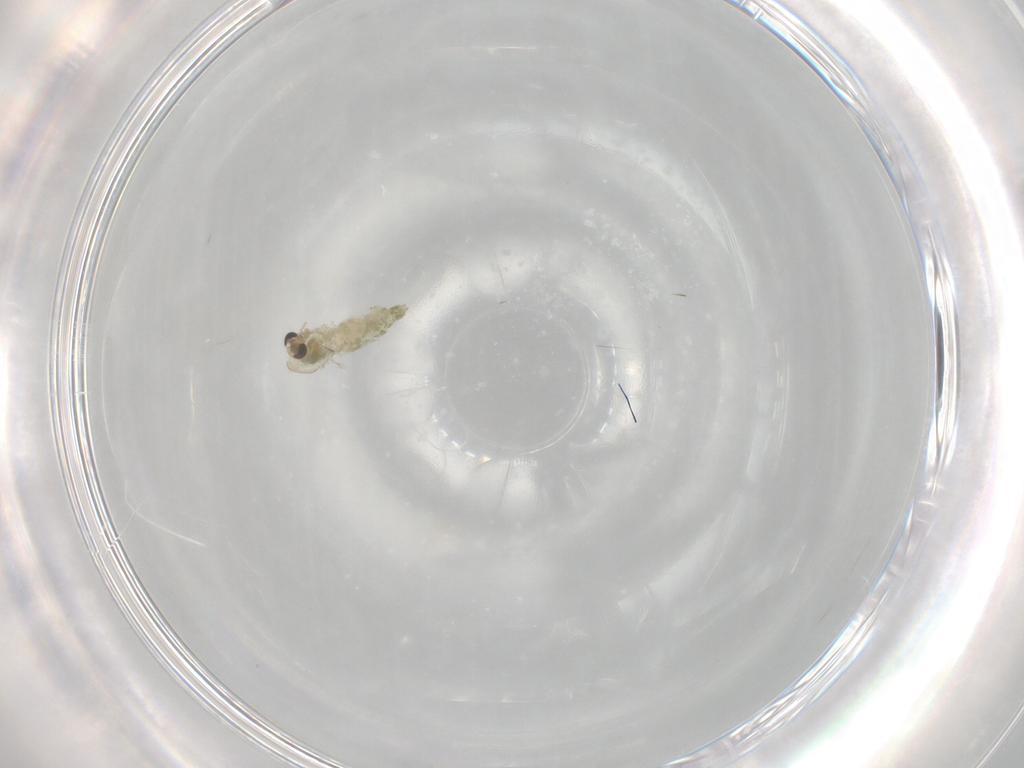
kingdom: Animalia
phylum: Arthropoda
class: Insecta
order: Diptera
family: Chironomidae
